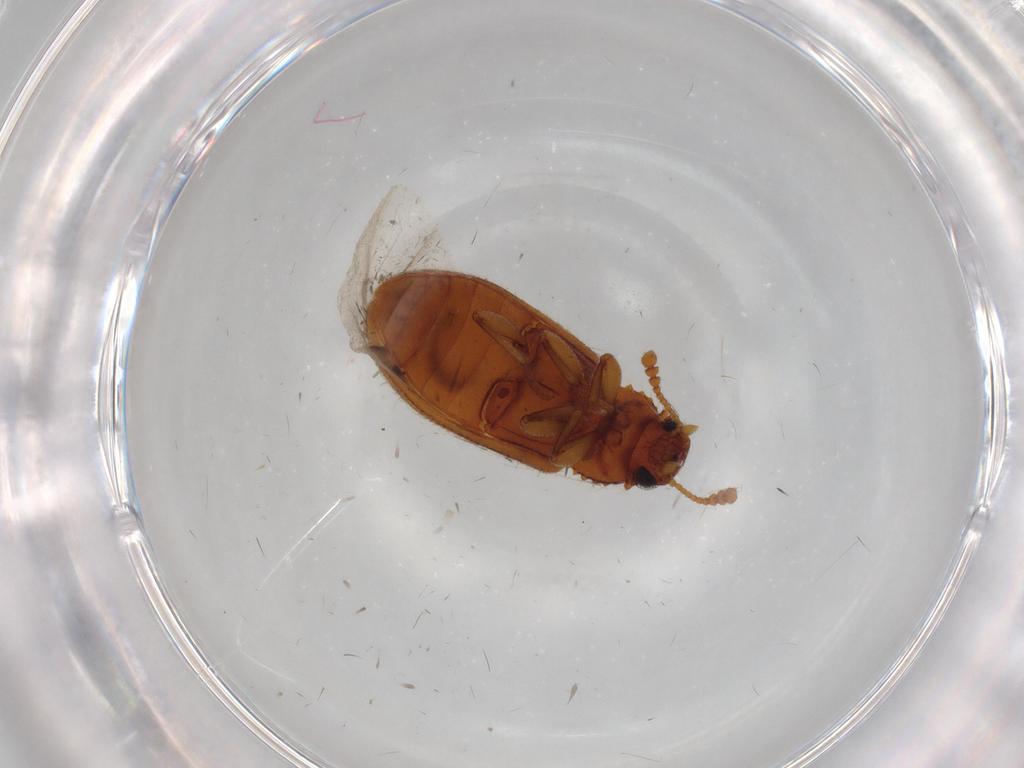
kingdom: Animalia
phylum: Arthropoda
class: Insecta
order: Coleoptera
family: Tenebrionidae
